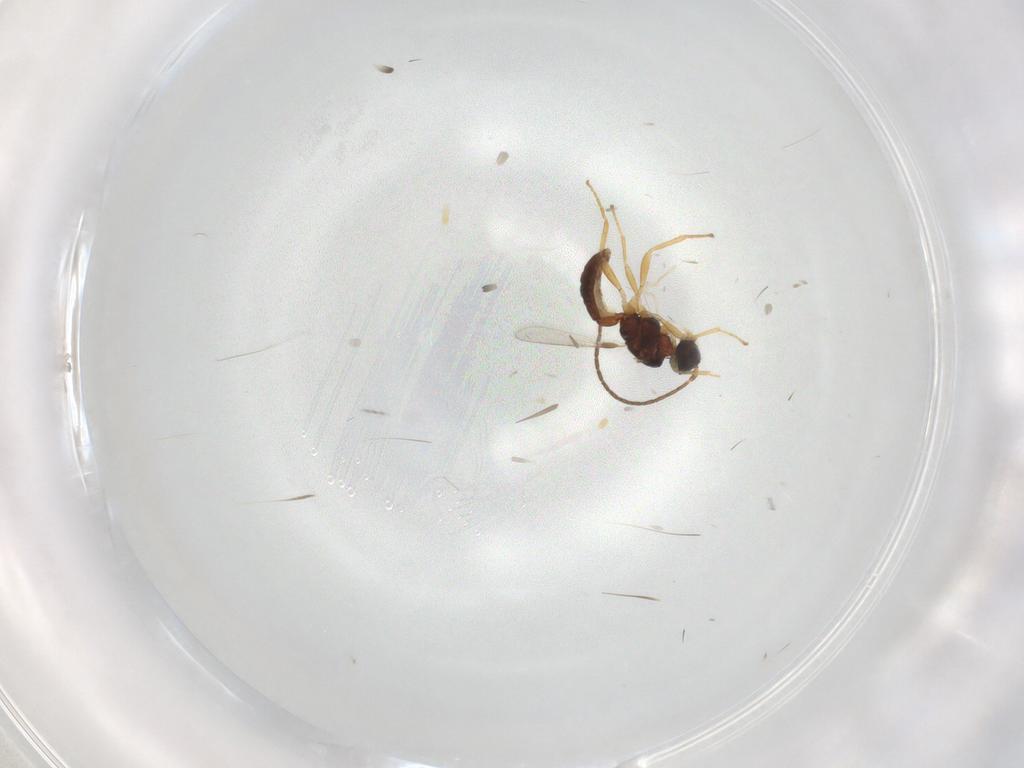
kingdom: Animalia
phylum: Arthropoda
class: Insecta
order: Hymenoptera
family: Braconidae
